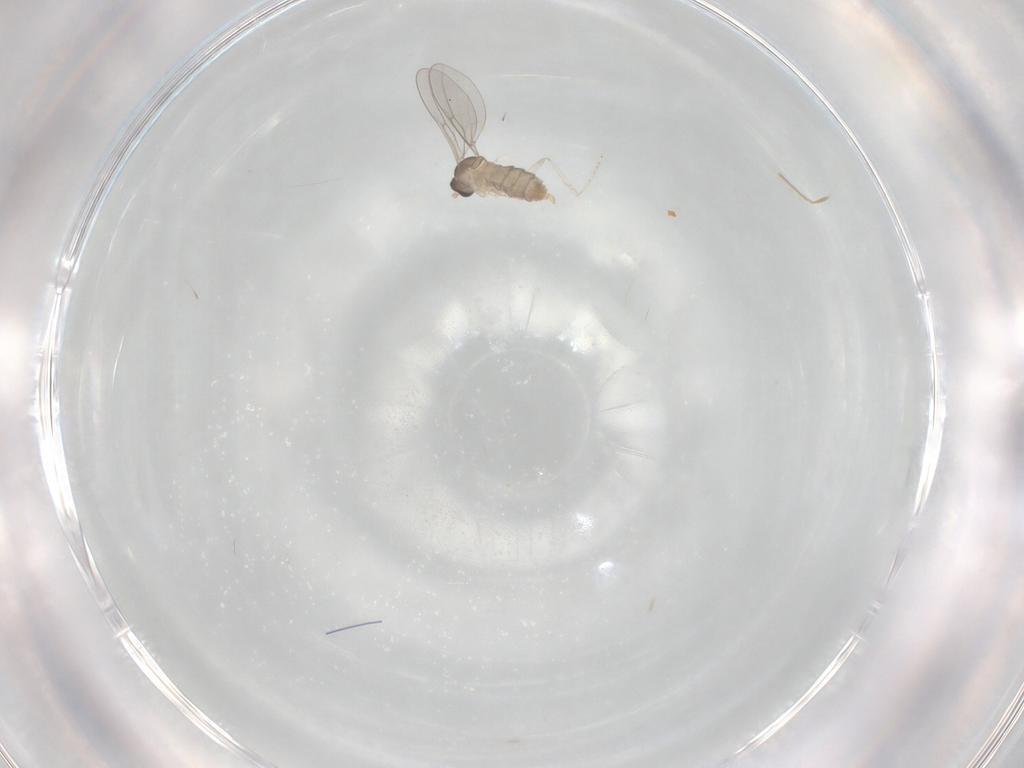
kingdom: Animalia
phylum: Arthropoda
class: Insecta
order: Diptera
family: Cecidomyiidae
